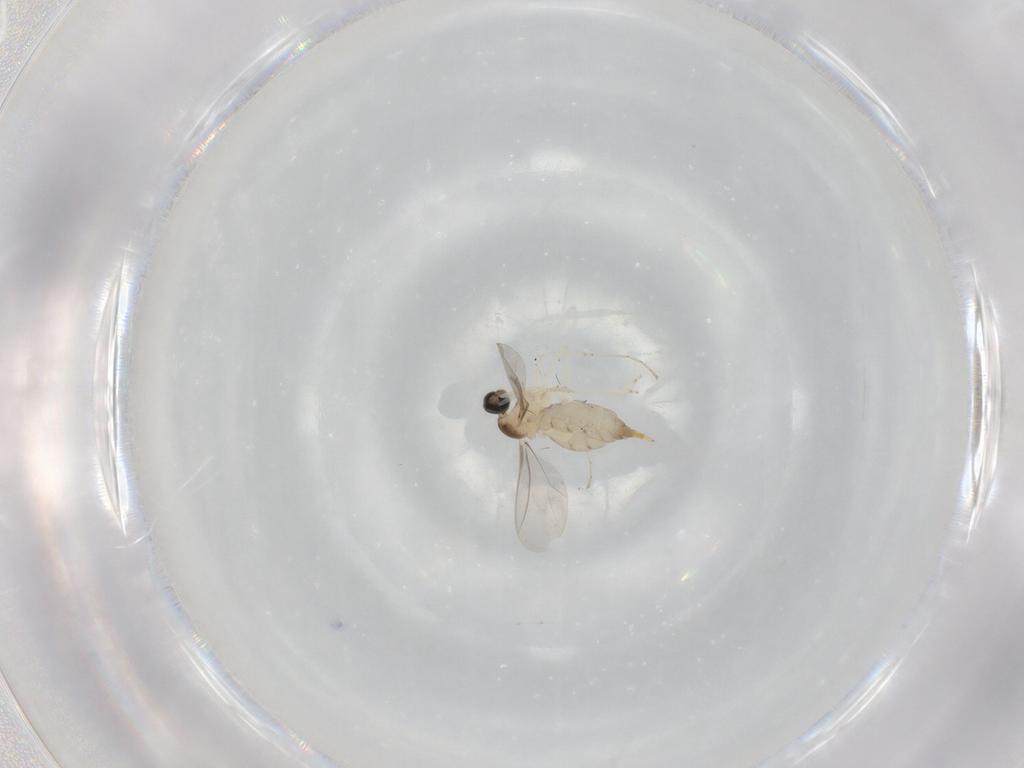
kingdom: Animalia
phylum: Arthropoda
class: Insecta
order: Diptera
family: Cecidomyiidae
